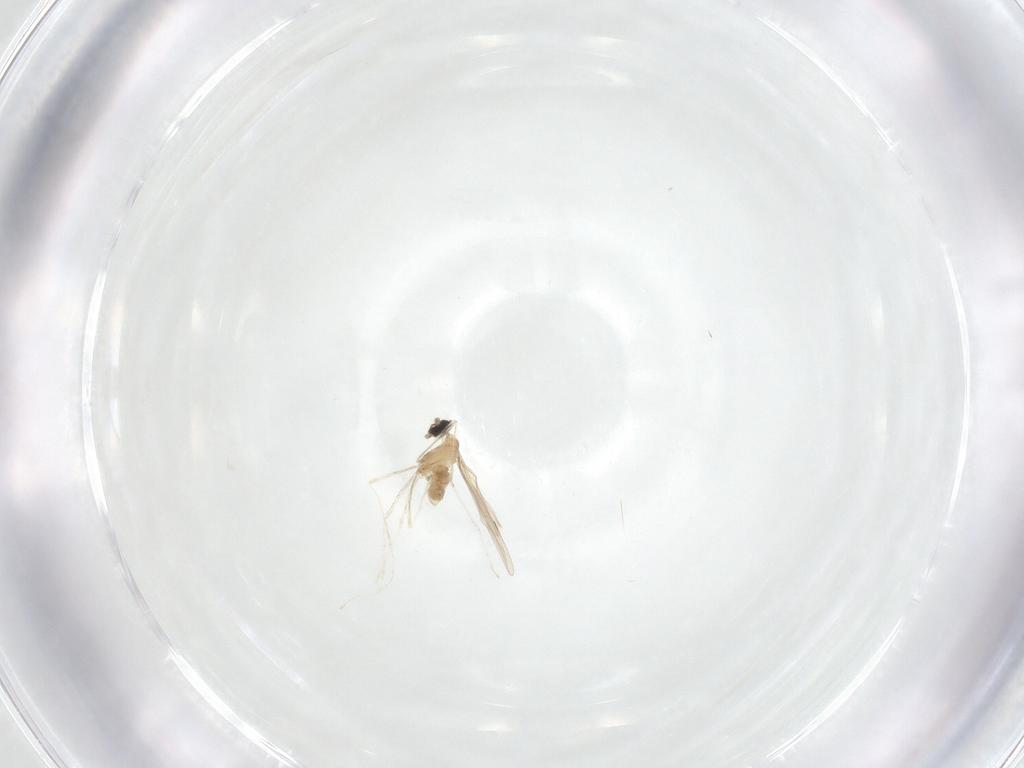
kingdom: Animalia
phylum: Arthropoda
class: Insecta
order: Diptera
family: Cecidomyiidae
